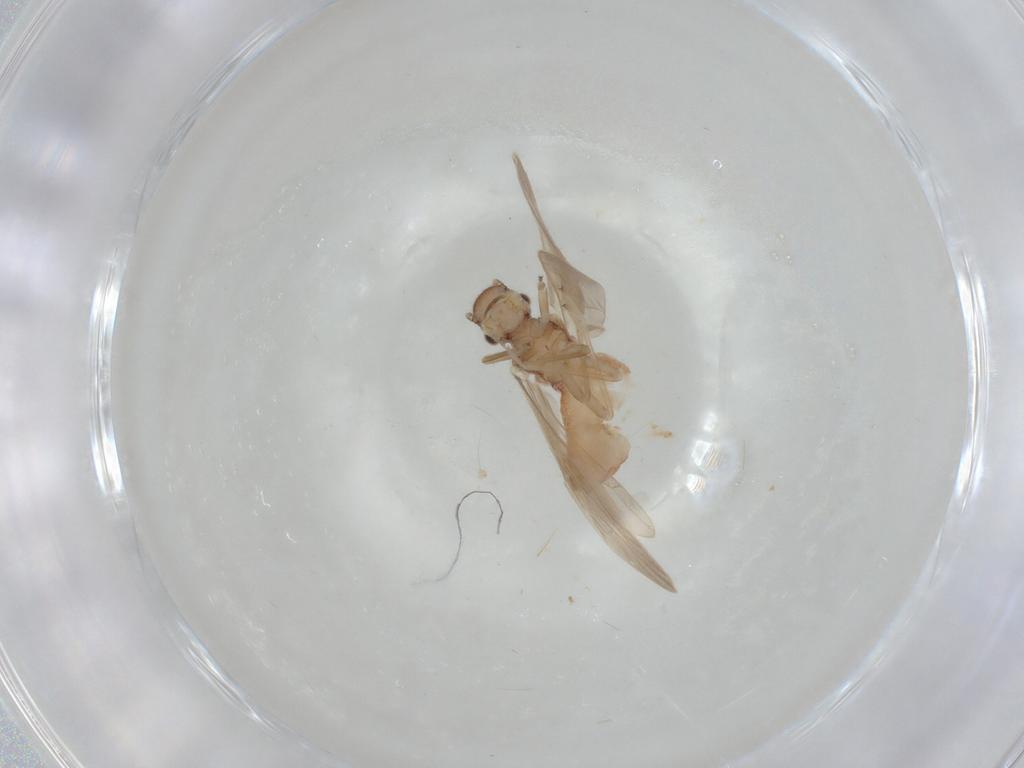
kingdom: Animalia
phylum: Arthropoda
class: Insecta
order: Psocodea
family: Caeciliusidae
